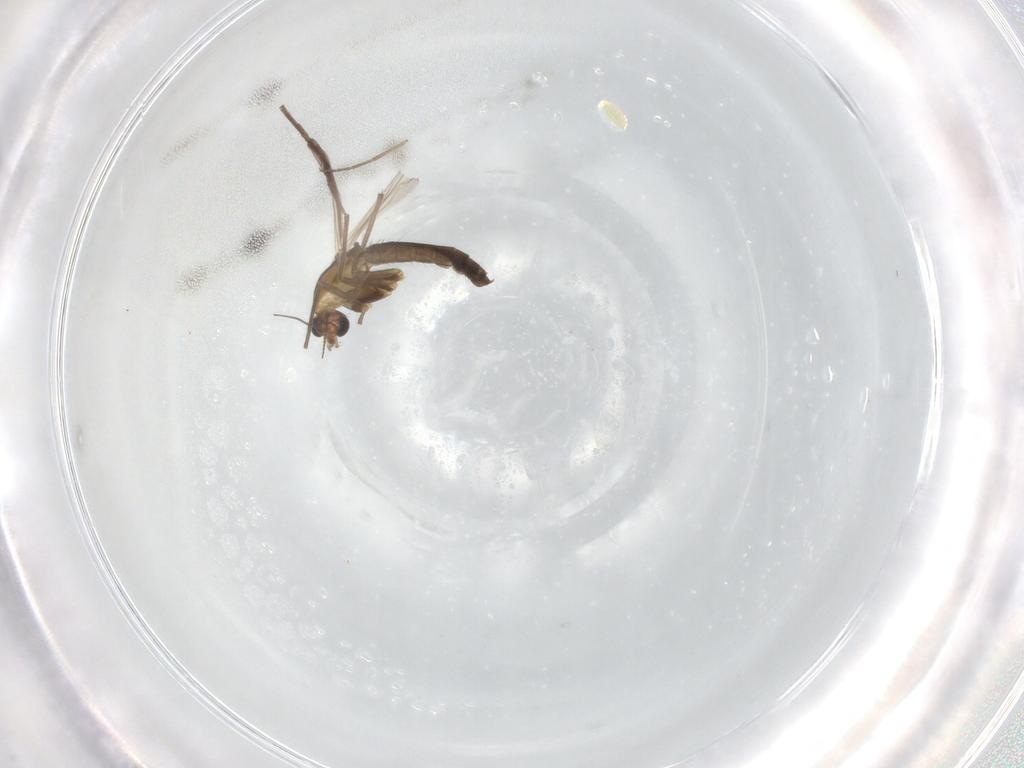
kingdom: Animalia
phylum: Arthropoda
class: Insecta
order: Diptera
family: Chironomidae
